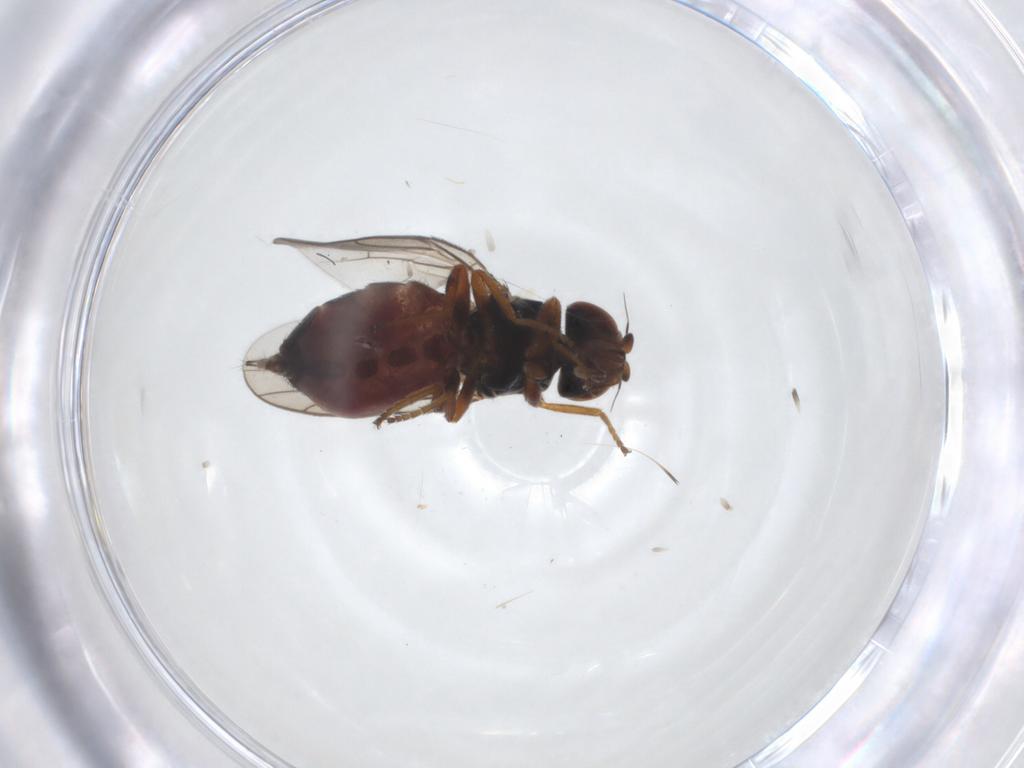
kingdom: Animalia
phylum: Arthropoda
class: Insecta
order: Diptera
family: Chloropidae
